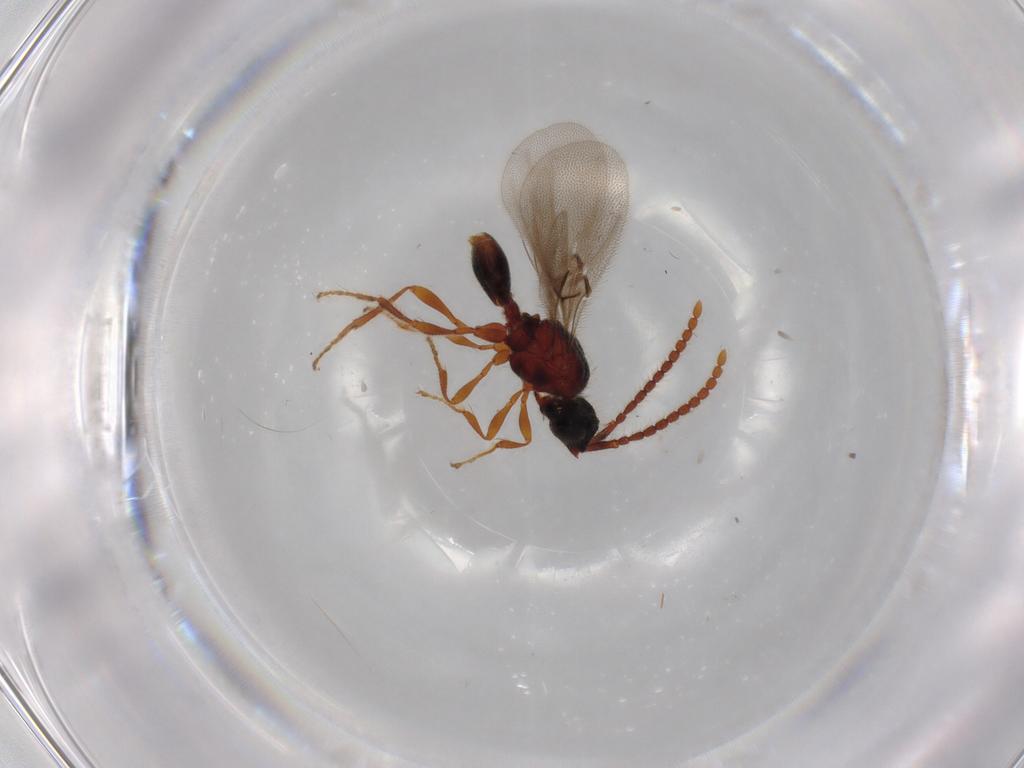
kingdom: Animalia
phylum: Arthropoda
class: Insecta
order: Hymenoptera
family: Diapriidae
